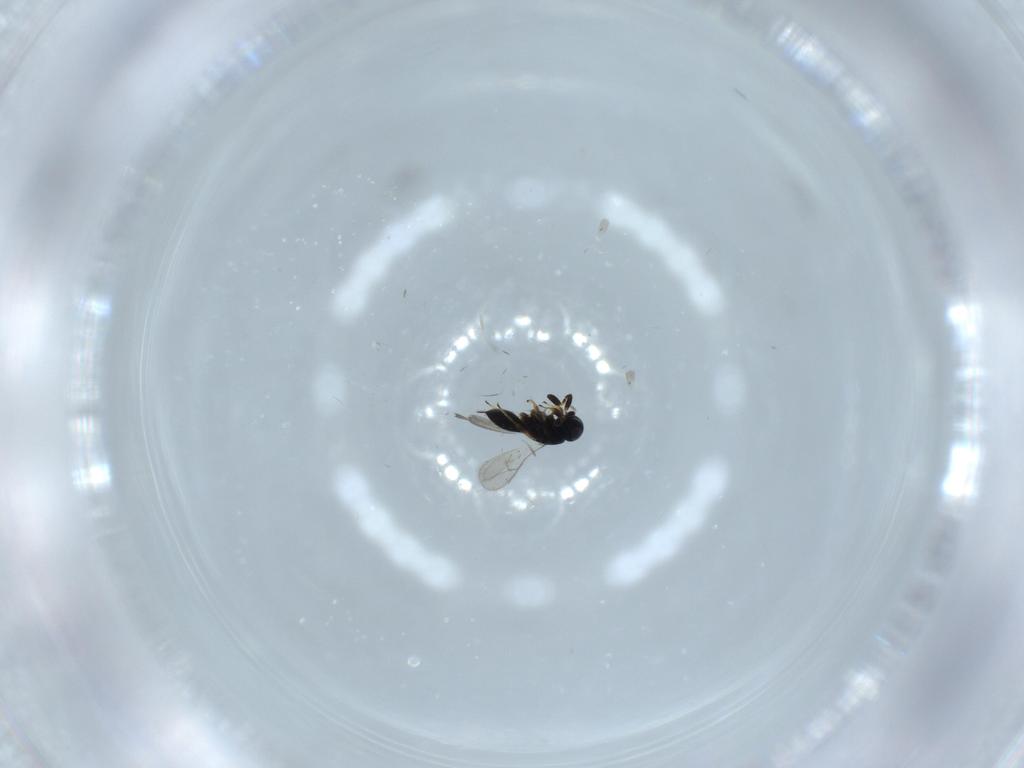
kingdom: Animalia
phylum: Arthropoda
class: Insecta
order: Hymenoptera
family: Scelionidae
